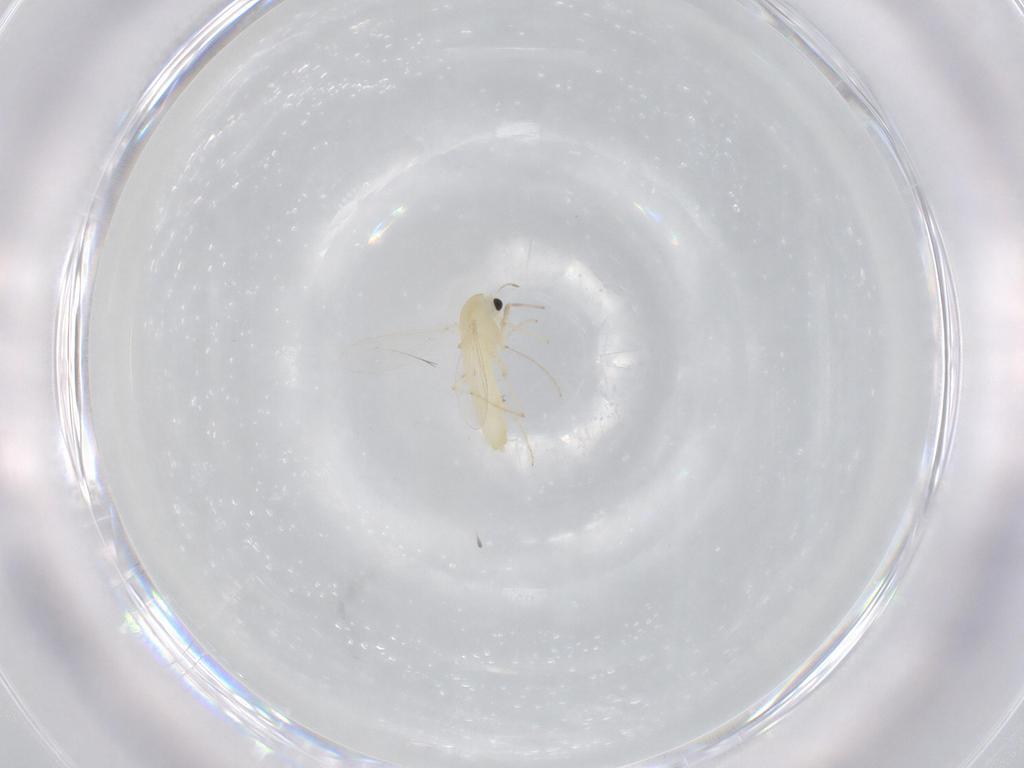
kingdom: Animalia
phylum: Arthropoda
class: Insecta
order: Diptera
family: Chironomidae
